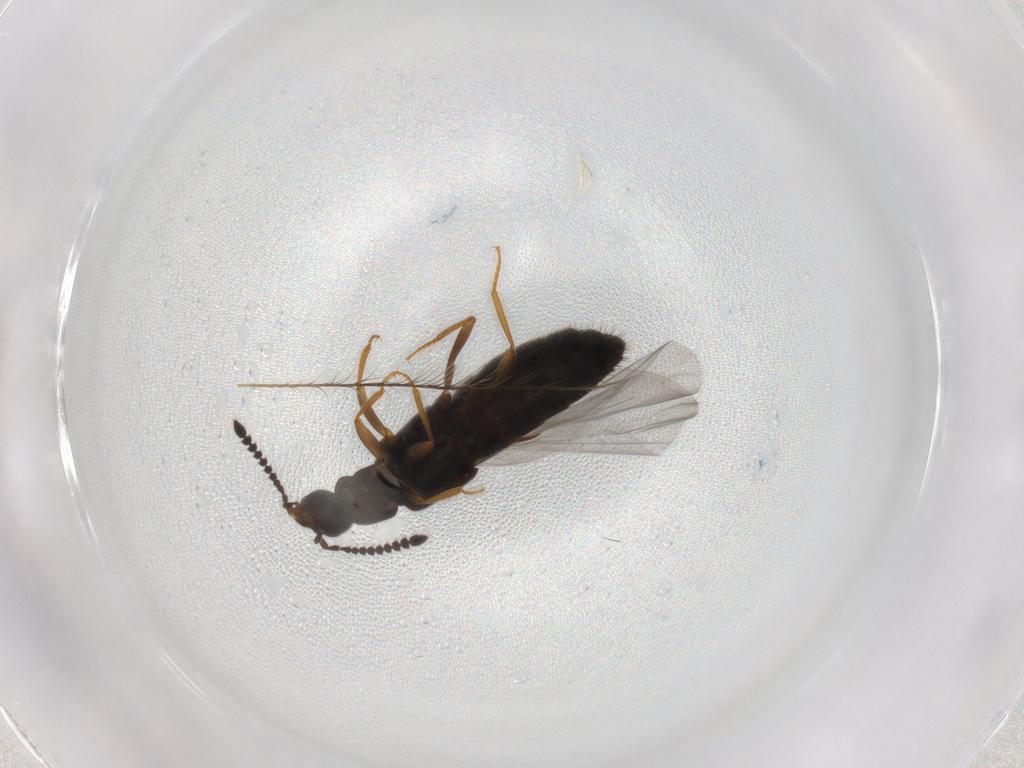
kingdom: Animalia
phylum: Arthropoda
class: Insecta
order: Coleoptera
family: Staphylinidae
